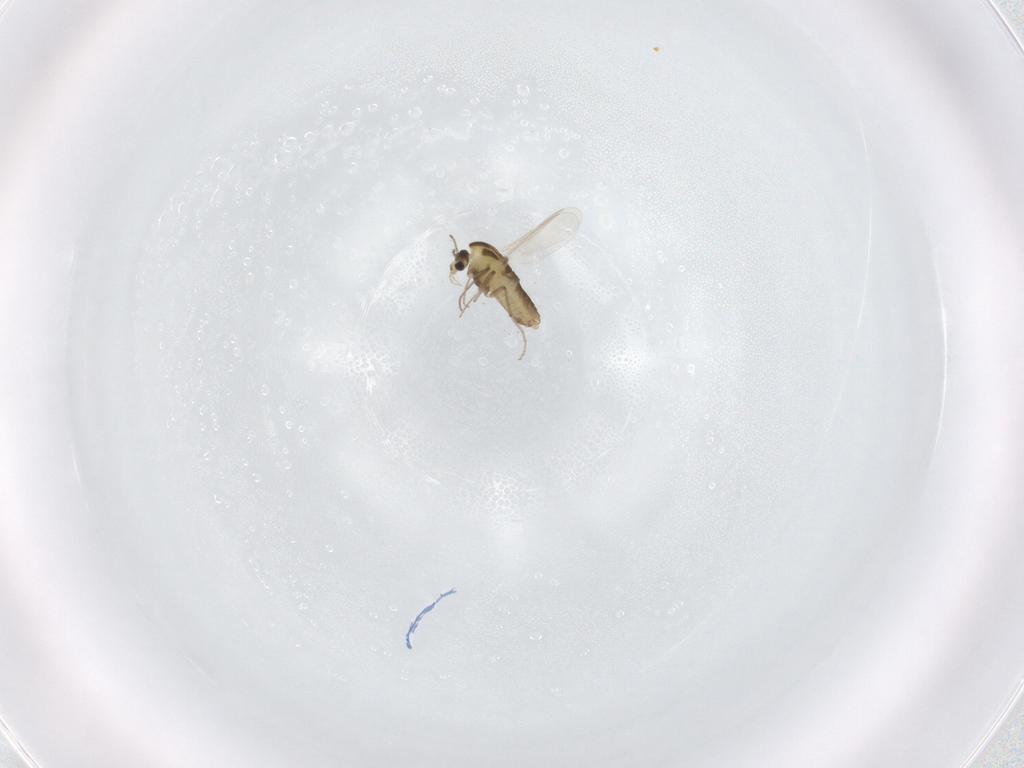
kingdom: Animalia
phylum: Arthropoda
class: Insecta
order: Diptera
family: Chironomidae
